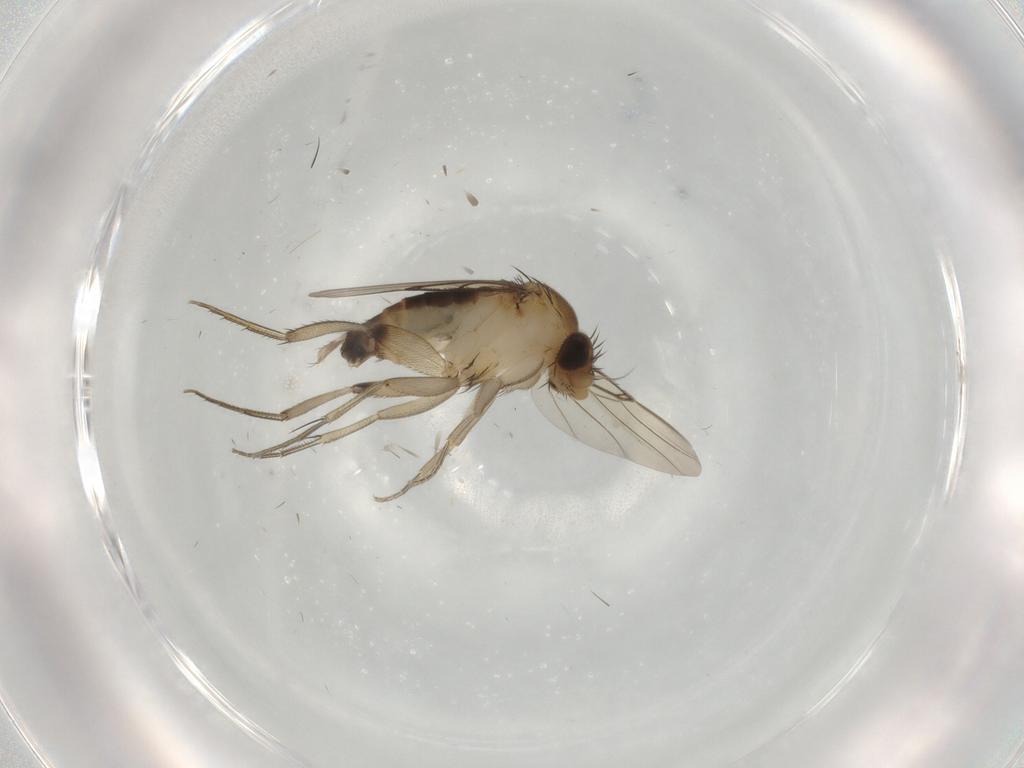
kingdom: Animalia
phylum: Arthropoda
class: Insecta
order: Diptera
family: Phoridae
